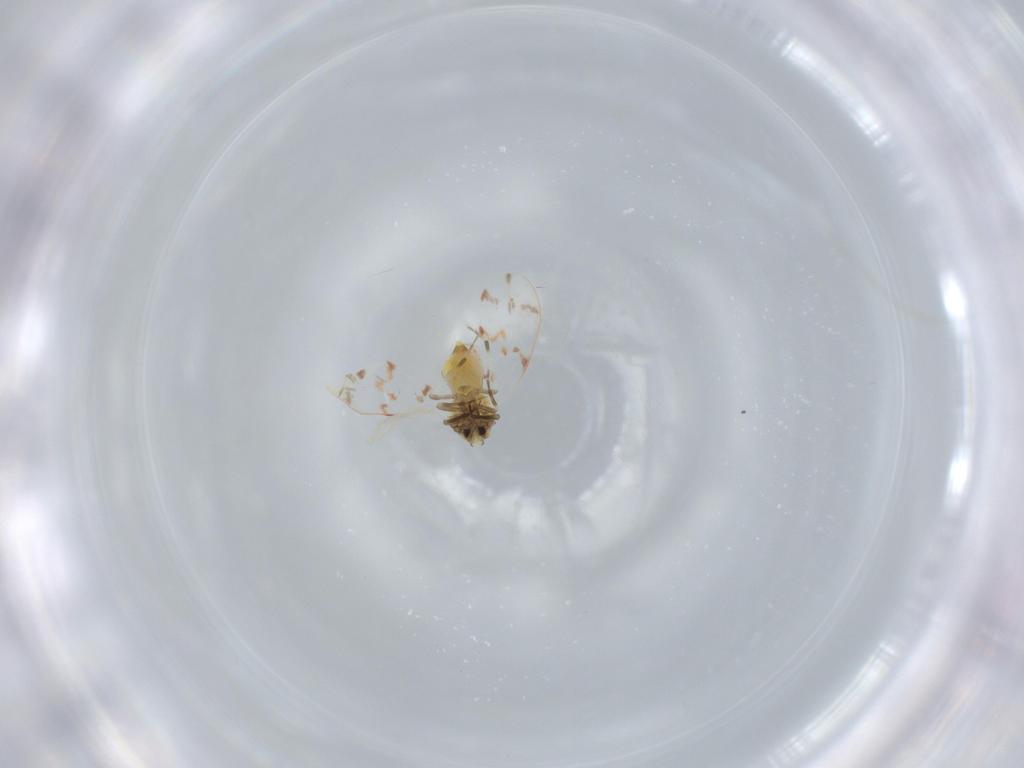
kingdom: Animalia
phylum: Arthropoda
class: Insecta
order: Hemiptera
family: Aleyrodidae
